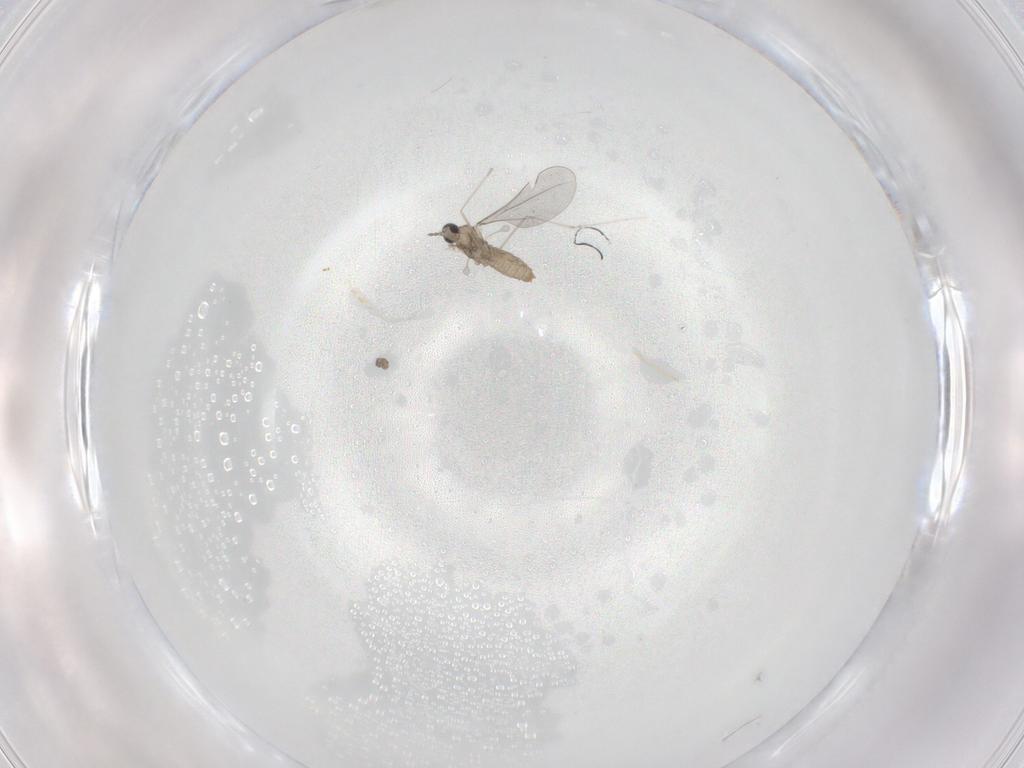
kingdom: Animalia
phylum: Arthropoda
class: Insecta
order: Diptera
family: Cecidomyiidae
